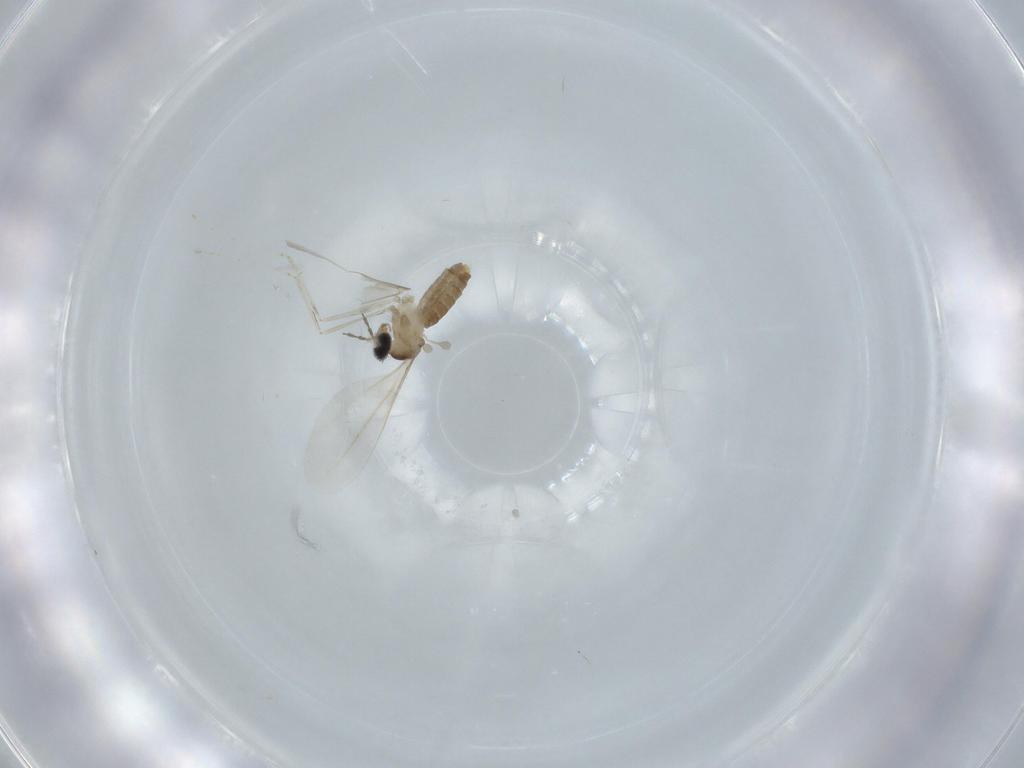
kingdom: Animalia
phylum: Arthropoda
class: Insecta
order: Diptera
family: Cecidomyiidae
